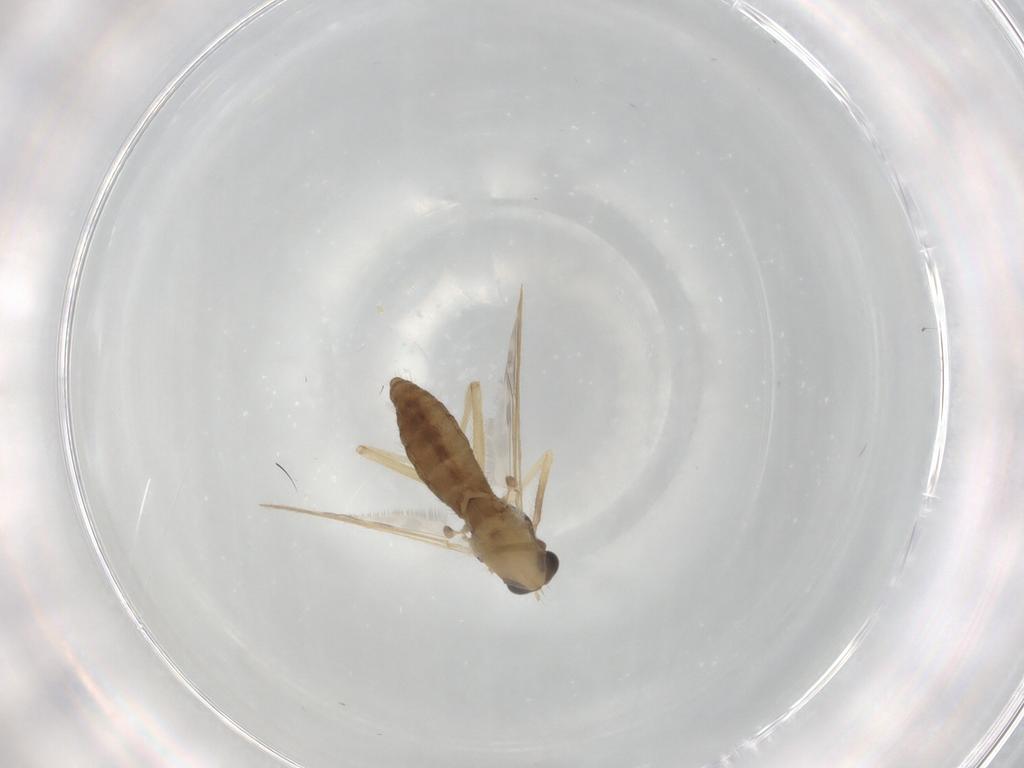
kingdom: Animalia
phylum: Arthropoda
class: Insecta
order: Diptera
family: Chironomidae
